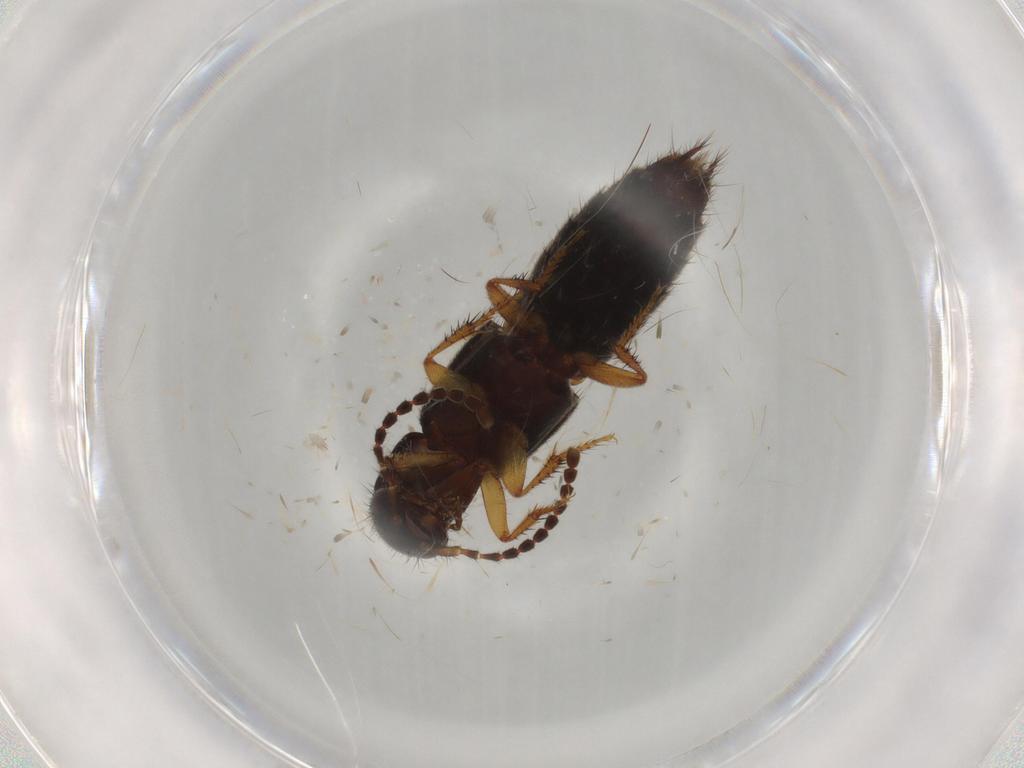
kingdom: Animalia
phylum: Arthropoda
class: Insecta
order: Coleoptera
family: Staphylinidae
